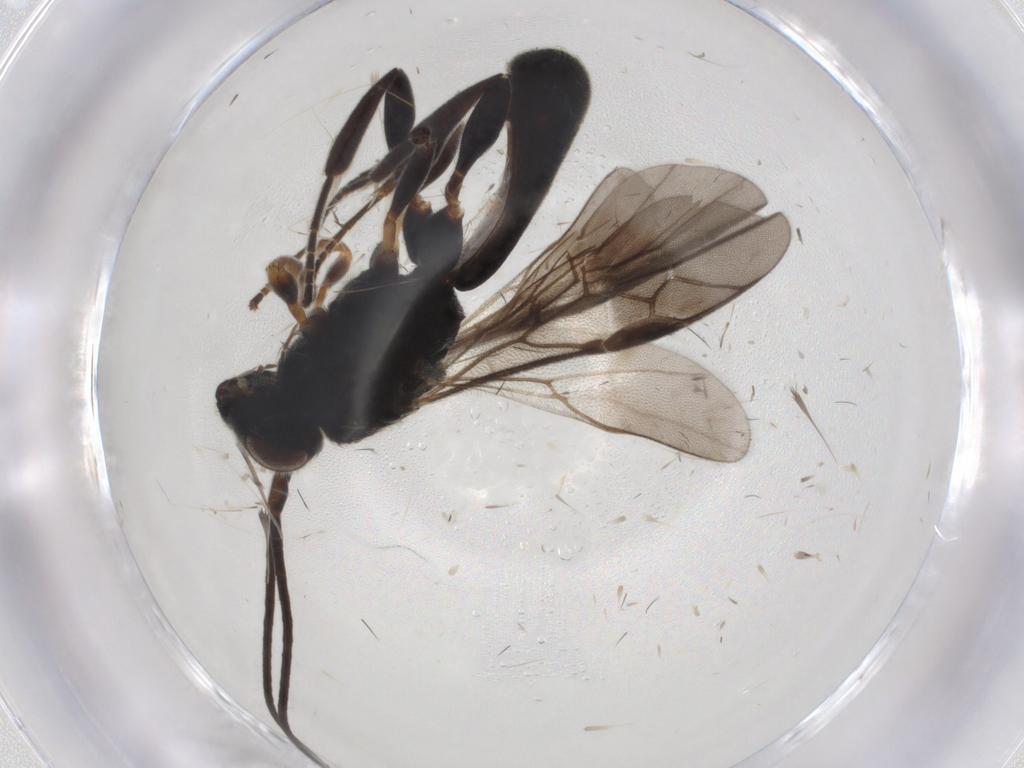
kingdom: Animalia
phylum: Arthropoda
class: Insecta
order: Hymenoptera
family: Braconidae
